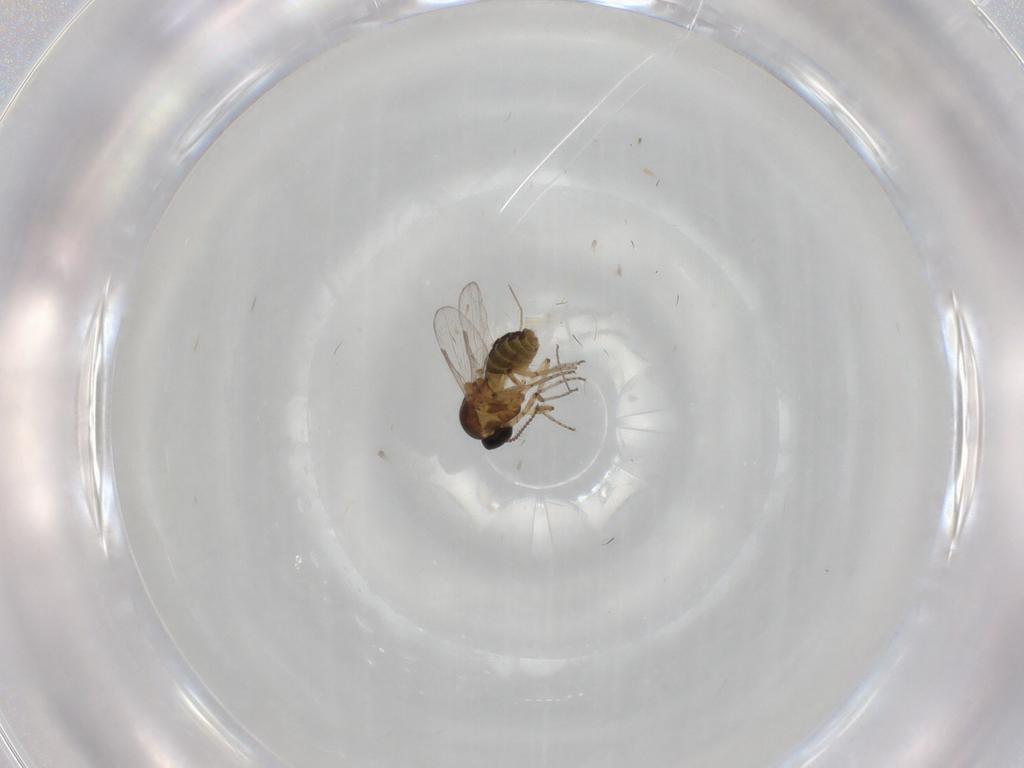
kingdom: Animalia
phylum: Arthropoda
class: Insecta
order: Diptera
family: Ceratopogonidae
